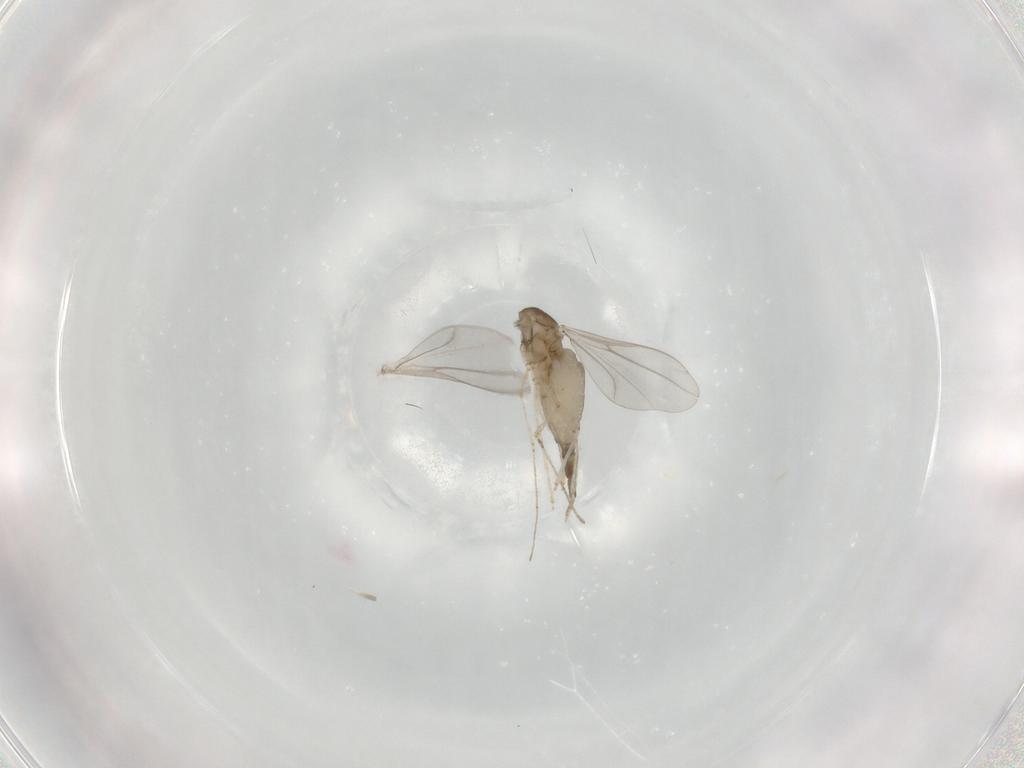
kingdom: Animalia
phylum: Arthropoda
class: Insecta
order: Diptera
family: Cecidomyiidae
